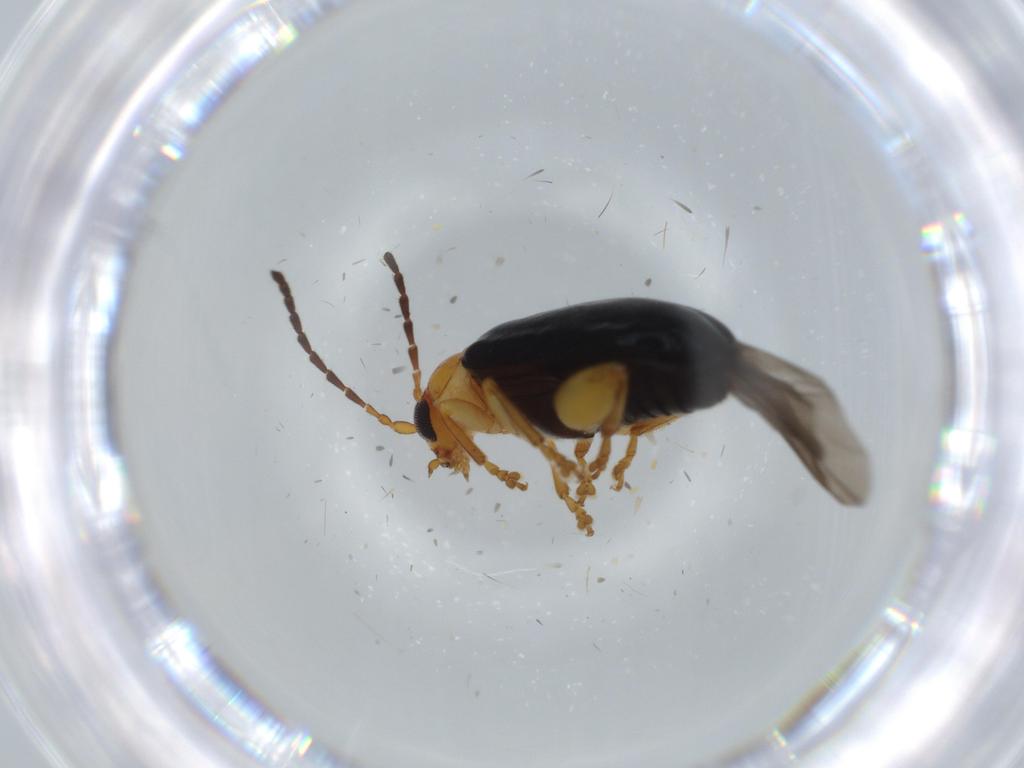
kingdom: Animalia
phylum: Arthropoda
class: Insecta
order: Coleoptera
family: Chrysomelidae
